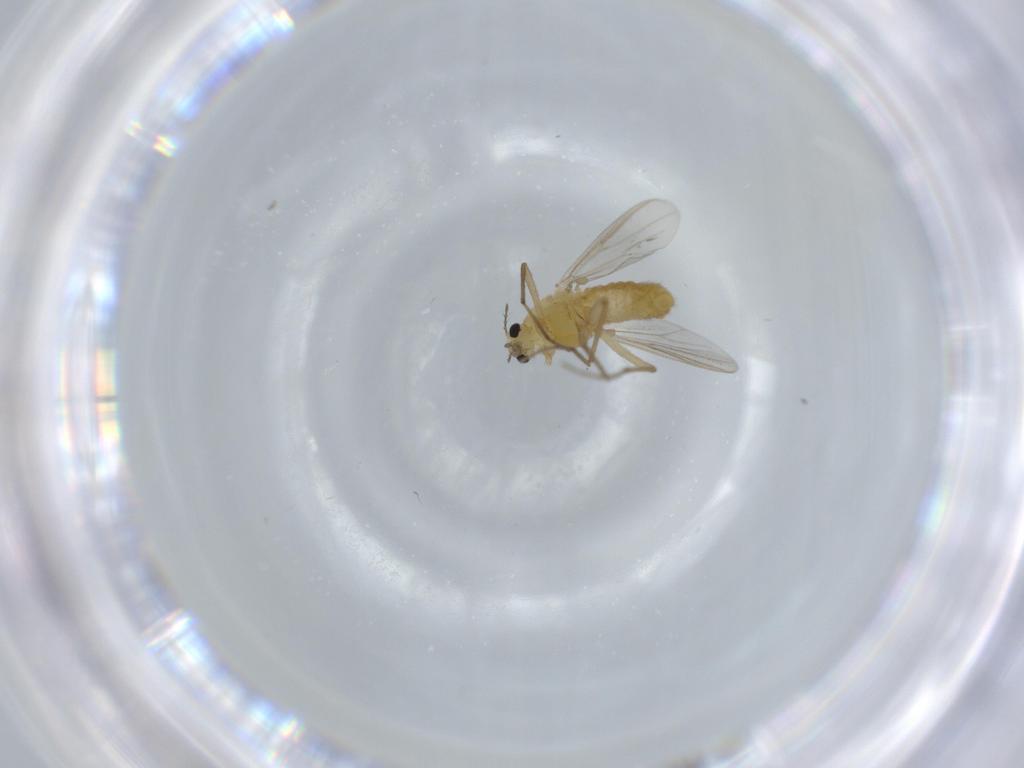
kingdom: Animalia
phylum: Arthropoda
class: Insecta
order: Diptera
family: Chironomidae
